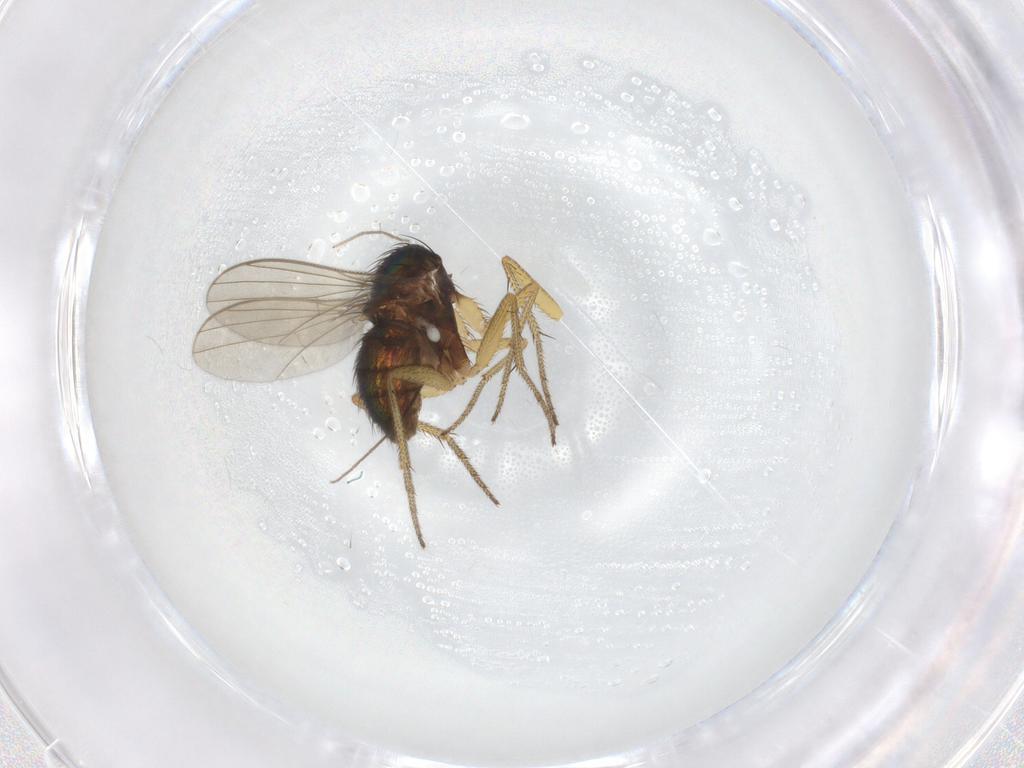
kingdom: Animalia
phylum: Arthropoda
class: Insecta
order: Diptera
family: Chironomidae
